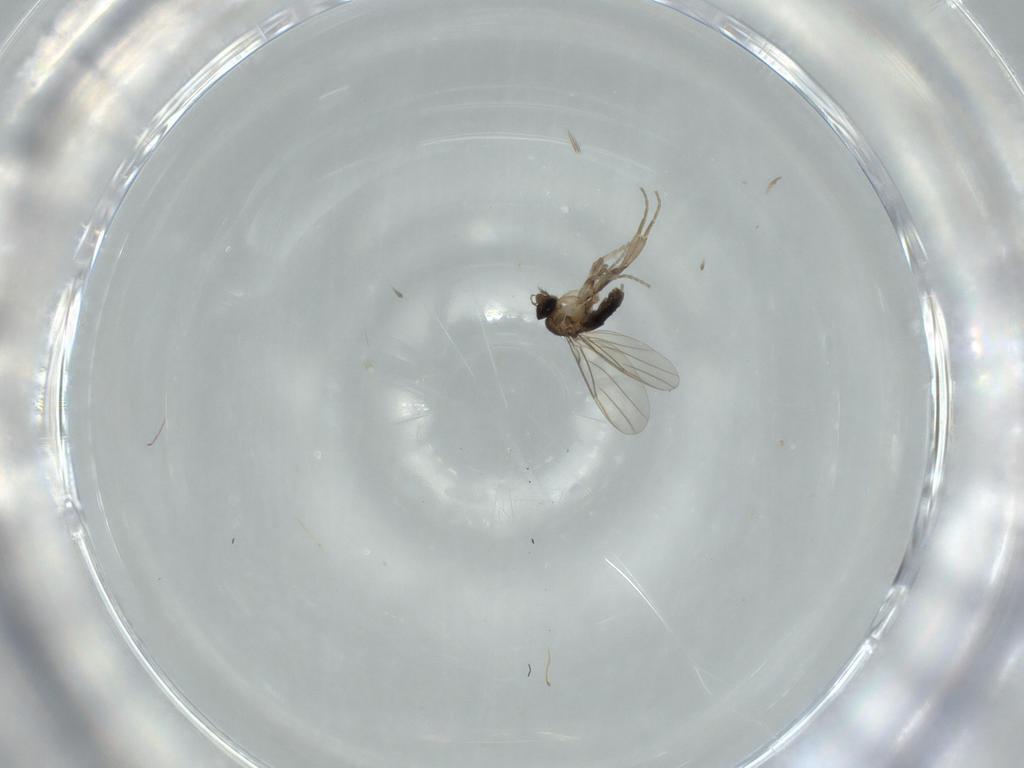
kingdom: Animalia
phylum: Arthropoda
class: Insecta
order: Diptera
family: Phoridae
